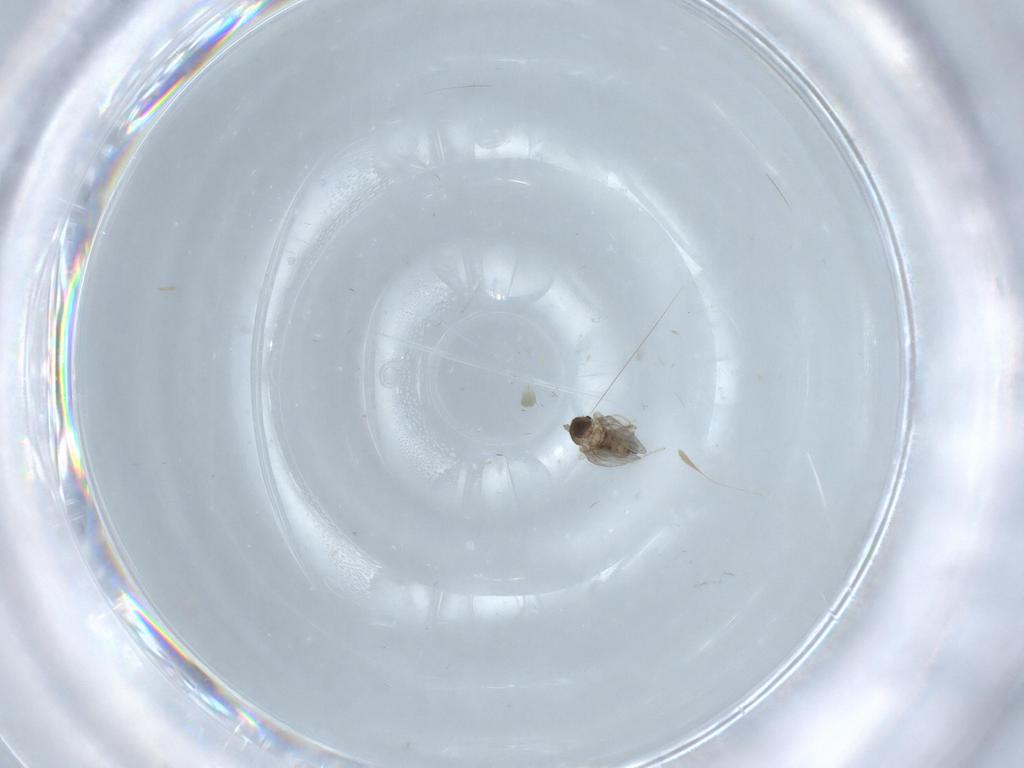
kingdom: Animalia
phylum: Arthropoda
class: Insecta
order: Diptera
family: Cecidomyiidae
